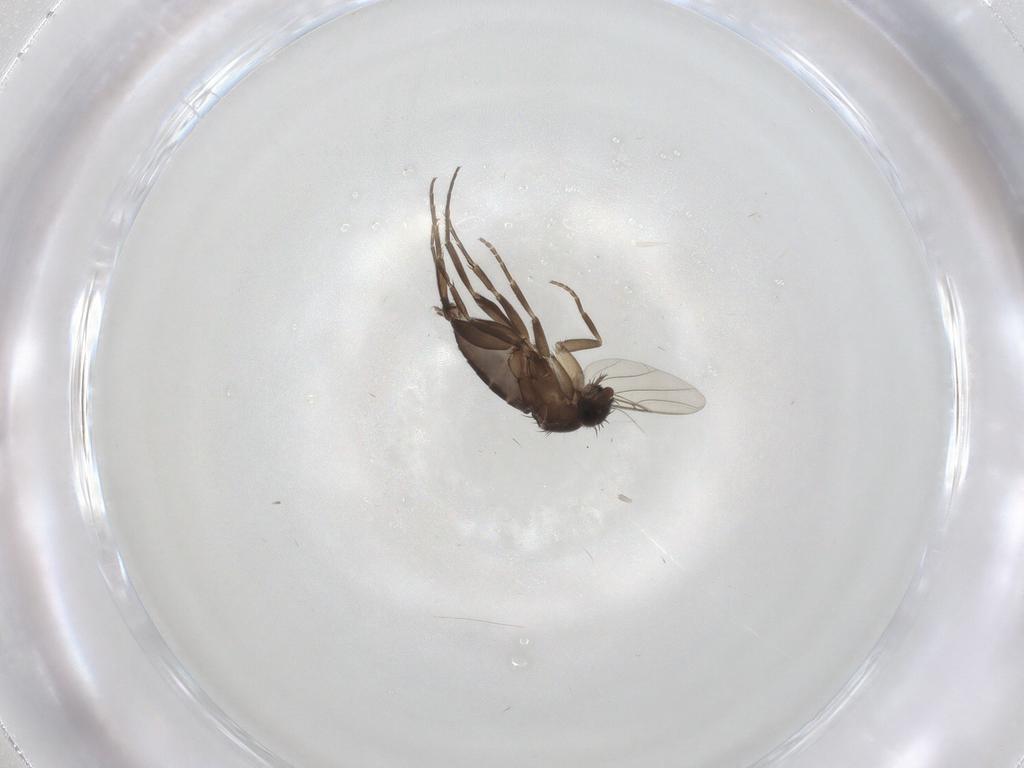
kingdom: Animalia
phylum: Arthropoda
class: Insecta
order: Diptera
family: Phoridae
